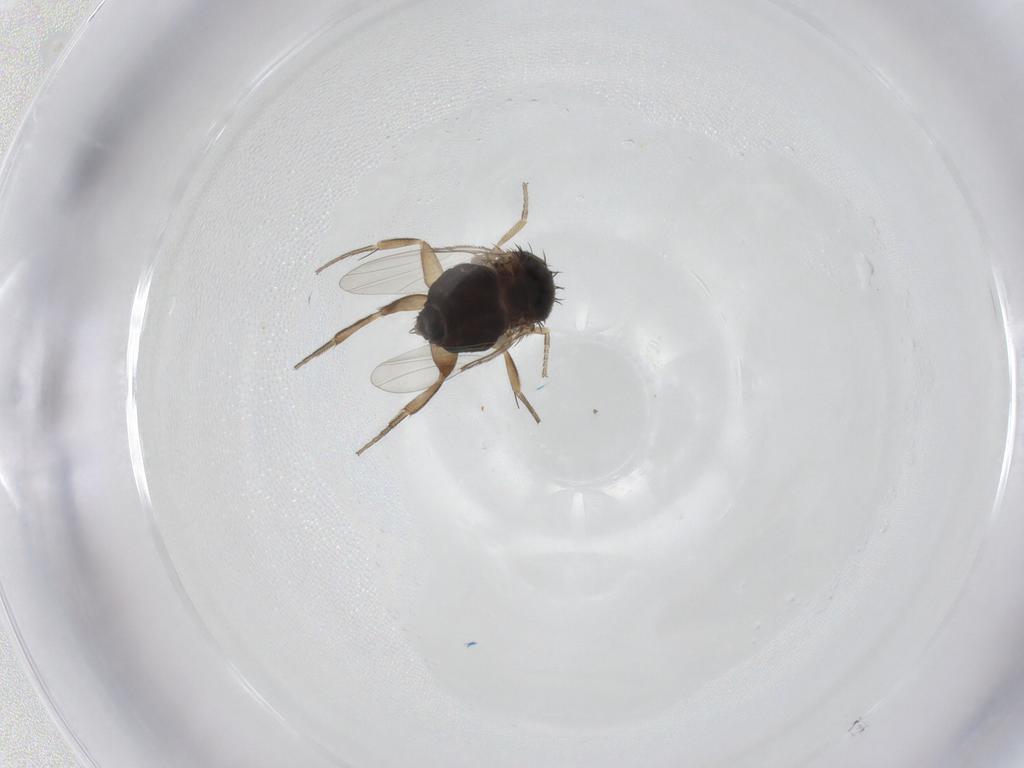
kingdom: Animalia
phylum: Arthropoda
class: Insecta
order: Diptera
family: Phoridae
